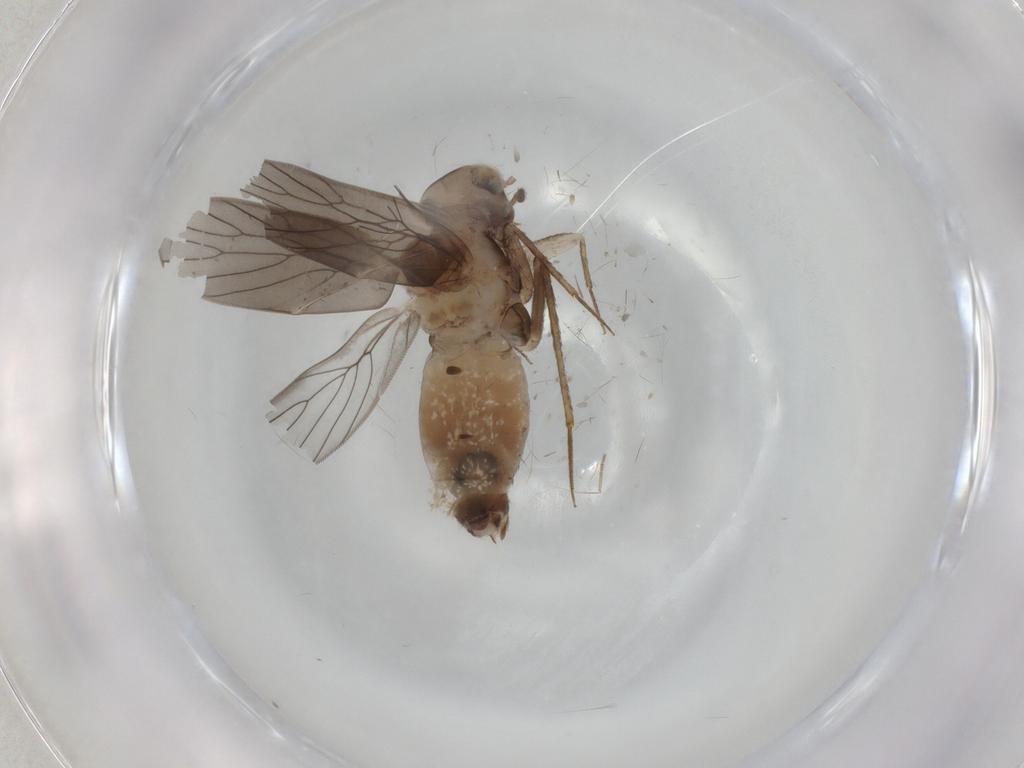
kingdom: Animalia
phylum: Arthropoda
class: Insecta
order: Psocodea
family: Lepidopsocidae
